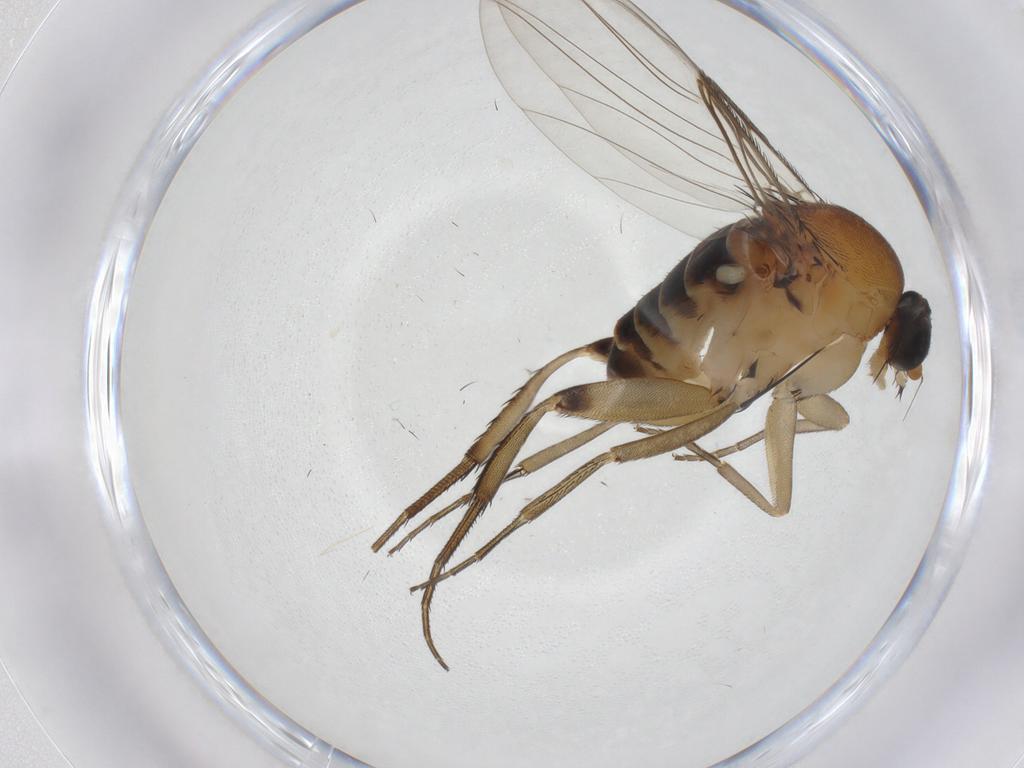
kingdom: Animalia
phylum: Arthropoda
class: Insecta
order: Diptera
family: Phoridae
